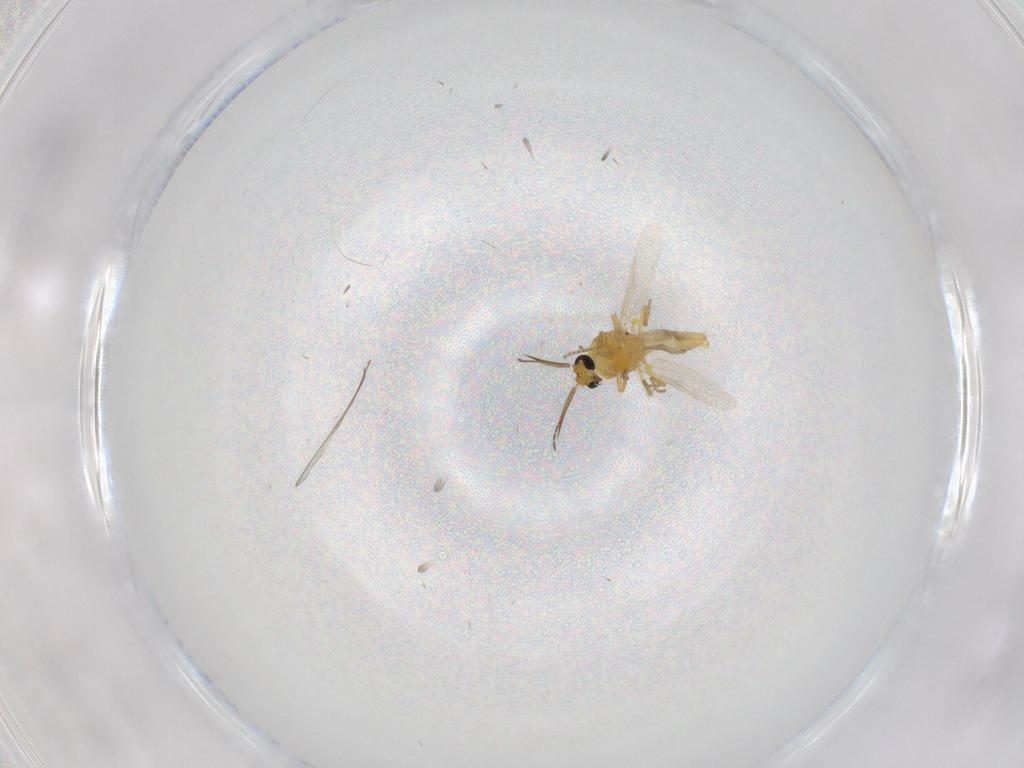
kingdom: Animalia
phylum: Arthropoda
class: Insecta
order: Diptera
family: Ceratopogonidae
